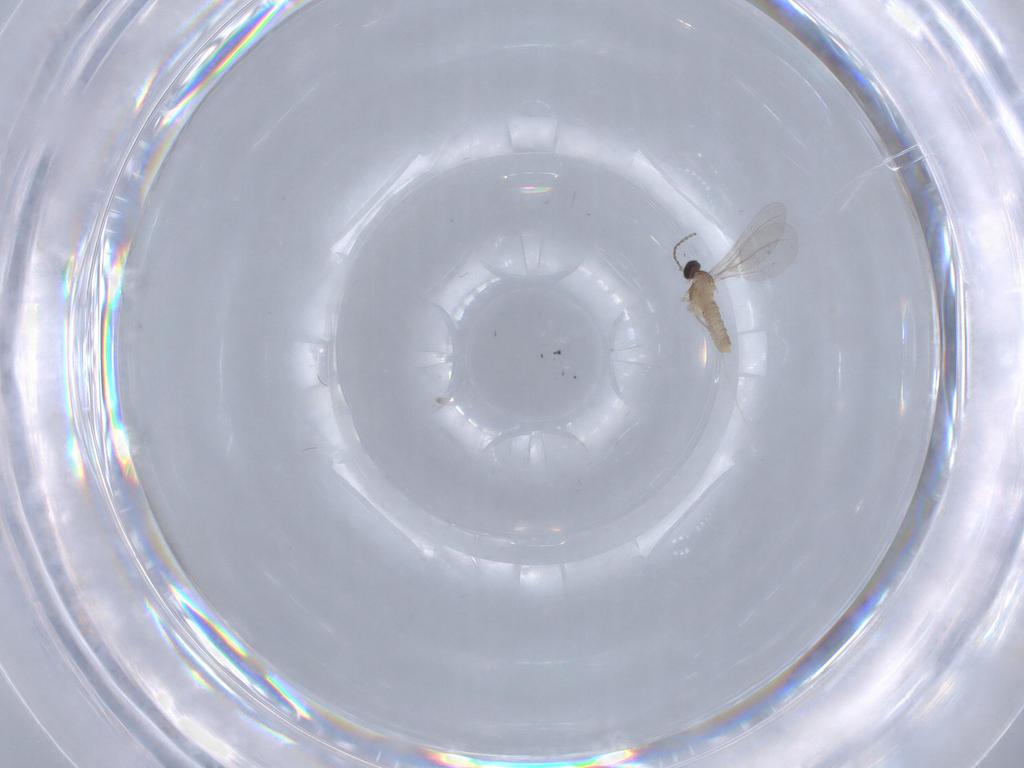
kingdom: Animalia
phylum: Arthropoda
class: Insecta
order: Diptera
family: Cecidomyiidae
